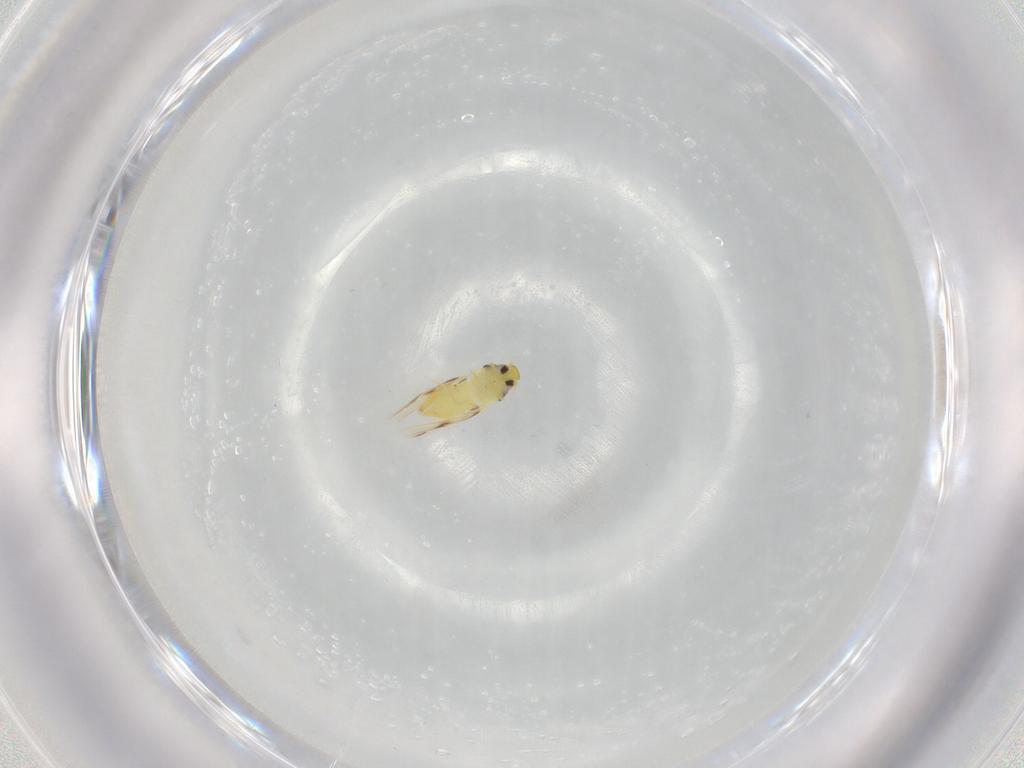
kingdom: Animalia
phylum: Arthropoda
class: Insecta
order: Hemiptera
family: Aleyrodidae
